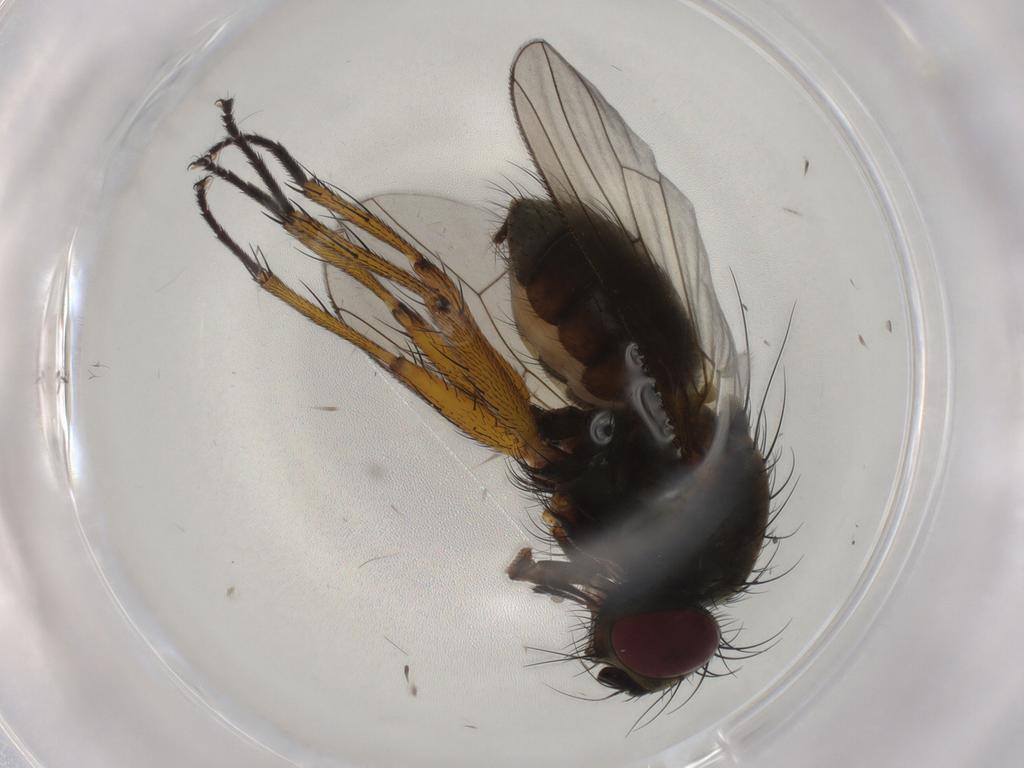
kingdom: Animalia
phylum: Arthropoda
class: Insecta
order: Diptera
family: Muscidae
